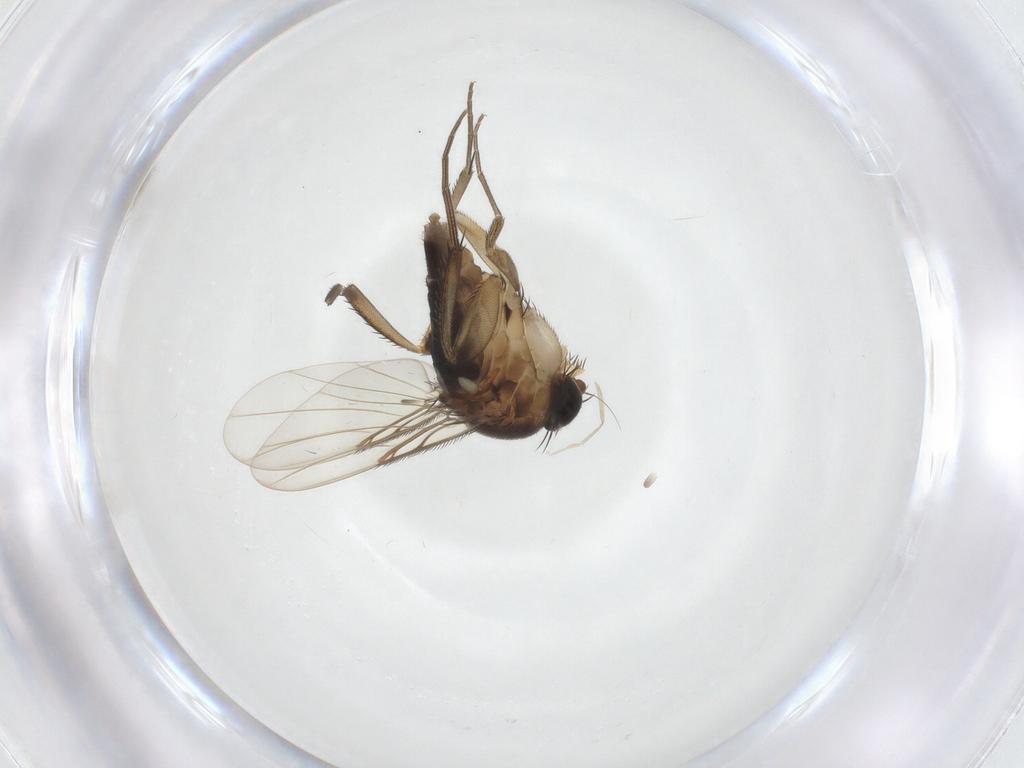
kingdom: Animalia
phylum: Arthropoda
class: Insecta
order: Diptera
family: Phoridae
